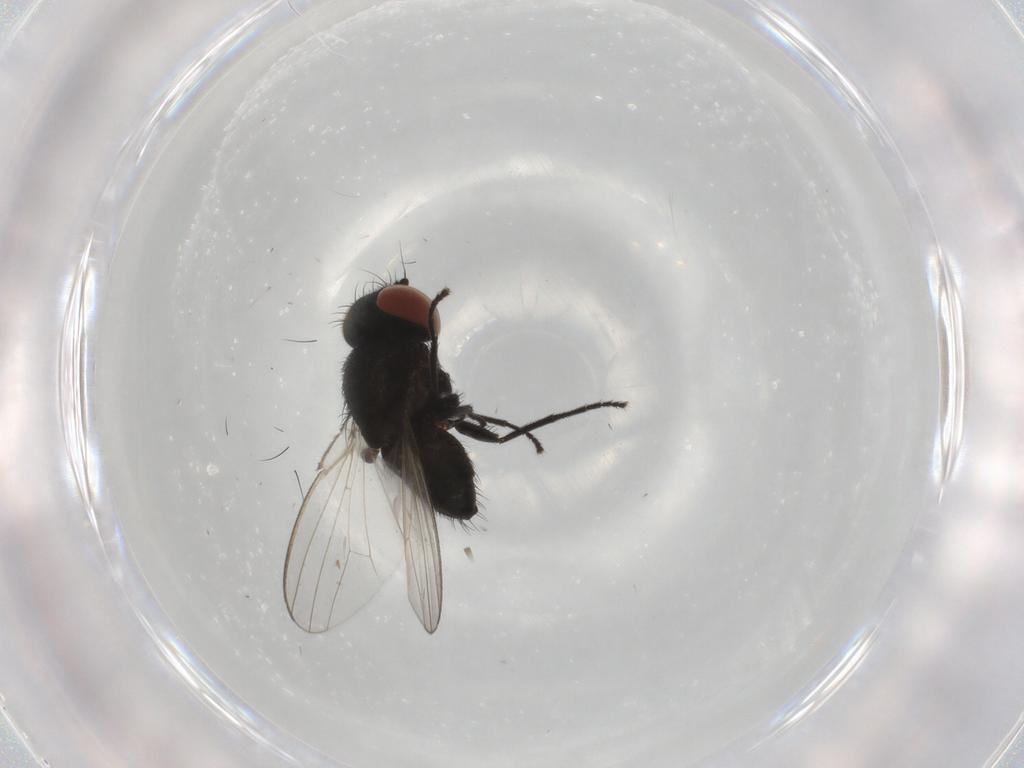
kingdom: Animalia
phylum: Arthropoda
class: Insecta
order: Diptera
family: Milichiidae
